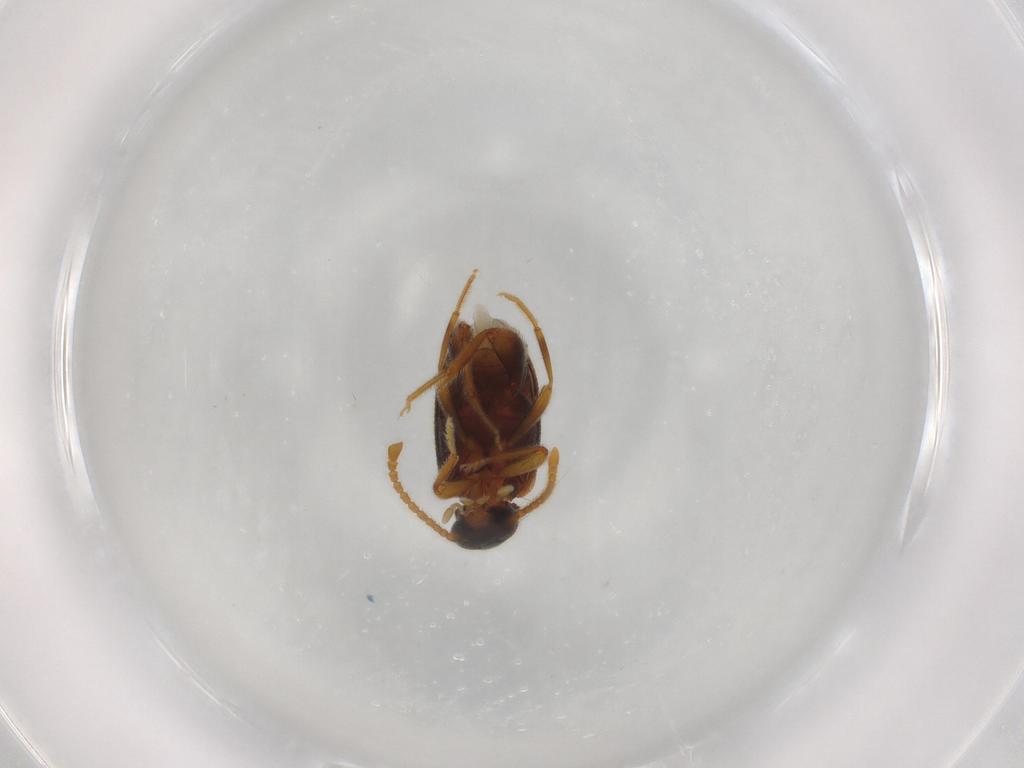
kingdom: Animalia
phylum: Arthropoda
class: Insecta
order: Coleoptera
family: Aderidae
